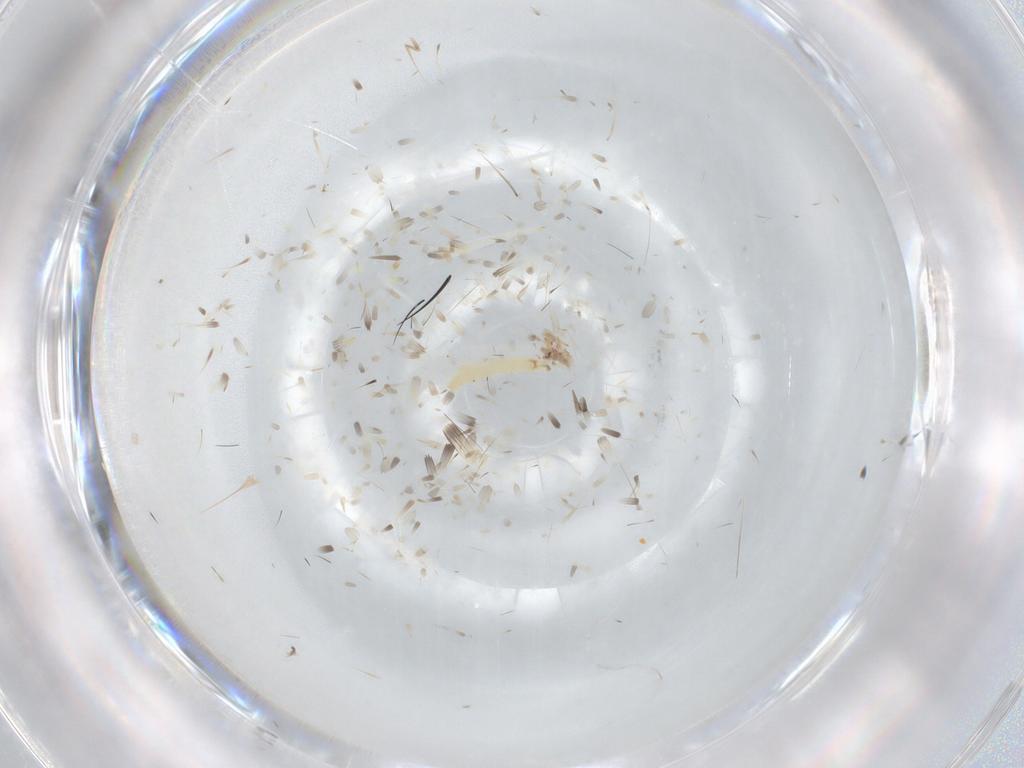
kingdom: Animalia
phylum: Arthropoda
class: Insecta
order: Diptera
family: Anthomyiidae
